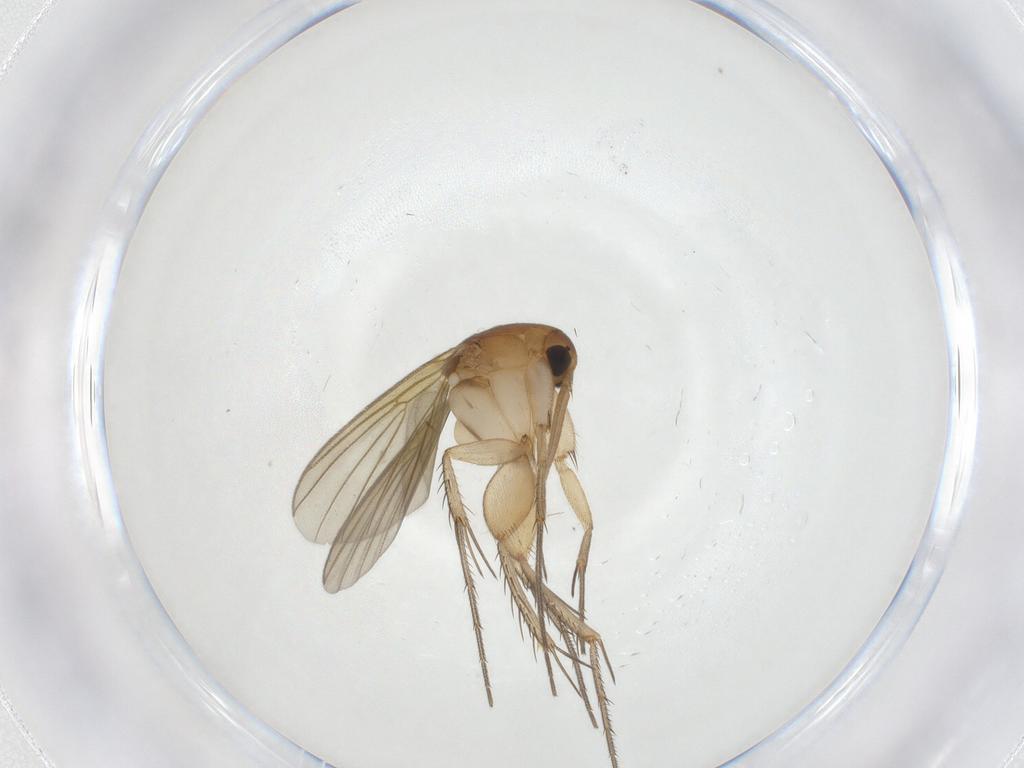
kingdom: Animalia
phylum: Arthropoda
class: Insecta
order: Diptera
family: Mycetophilidae
